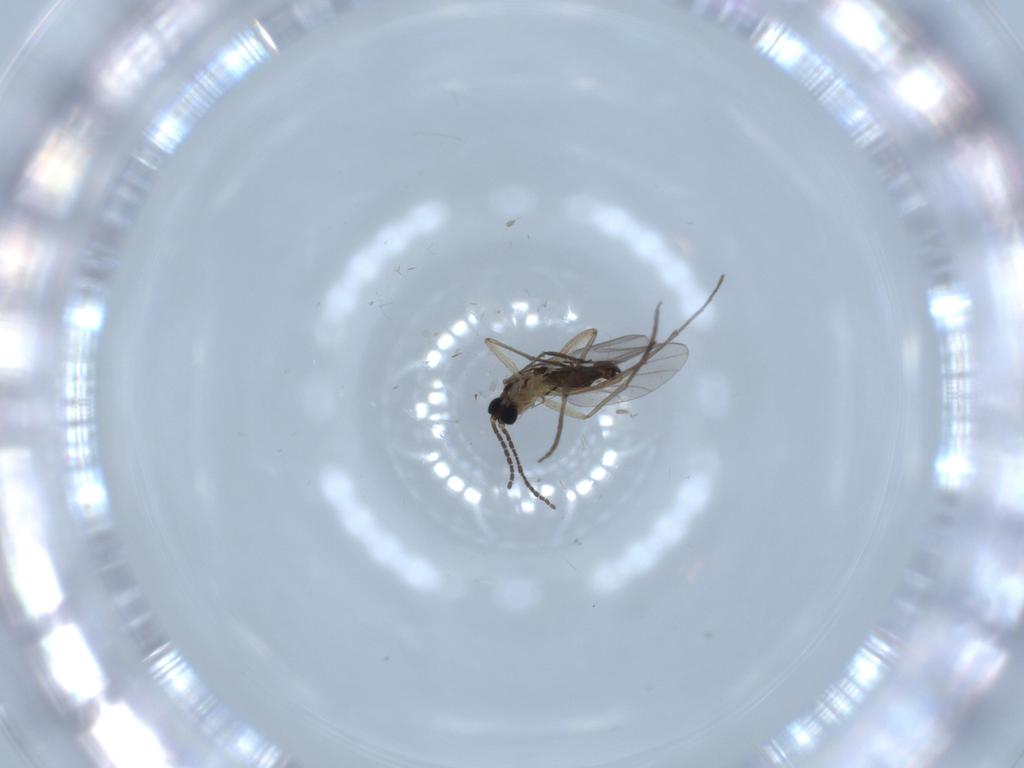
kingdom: Animalia
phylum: Arthropoda
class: Insecta
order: Diptera
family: Sciaridae
